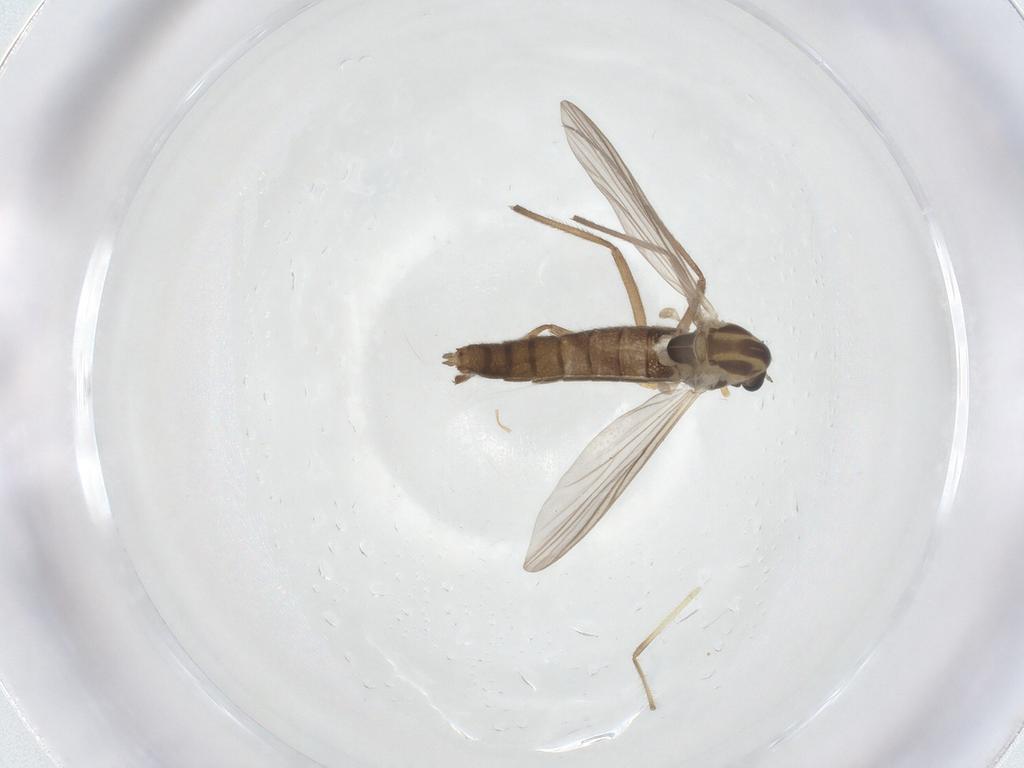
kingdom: Animalia
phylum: Arthropoda
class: Insecta
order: Diptera
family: Chironomidae
